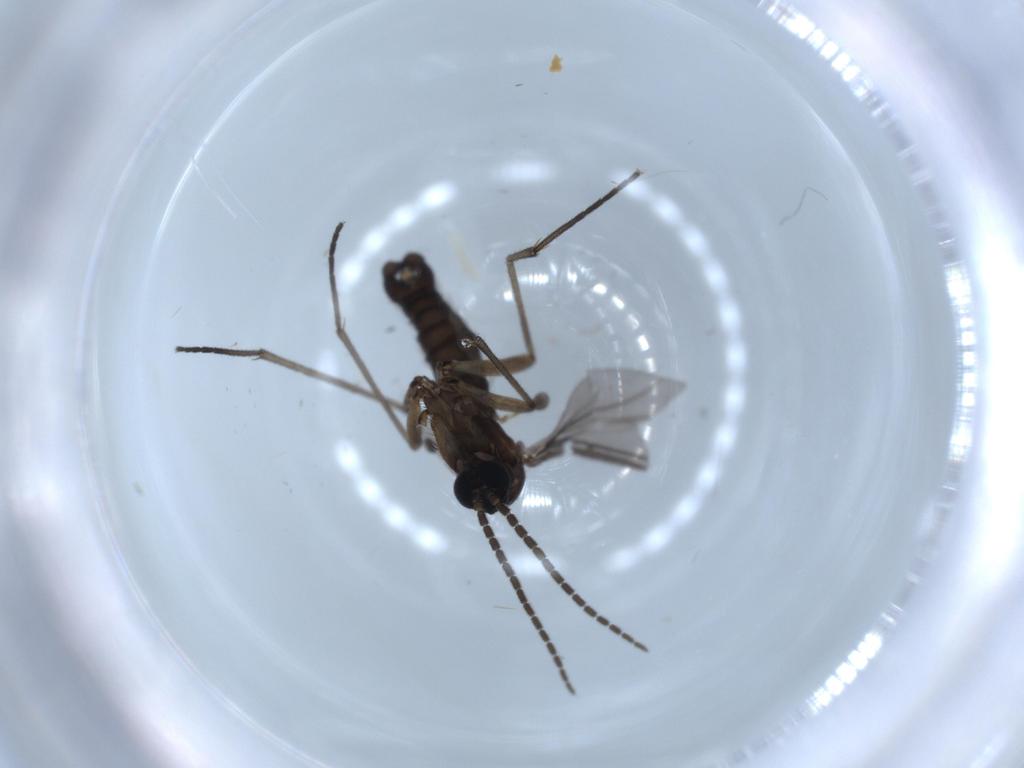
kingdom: Animalia
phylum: Arthropoda
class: Insecta
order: Diptera
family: Sciaridae
